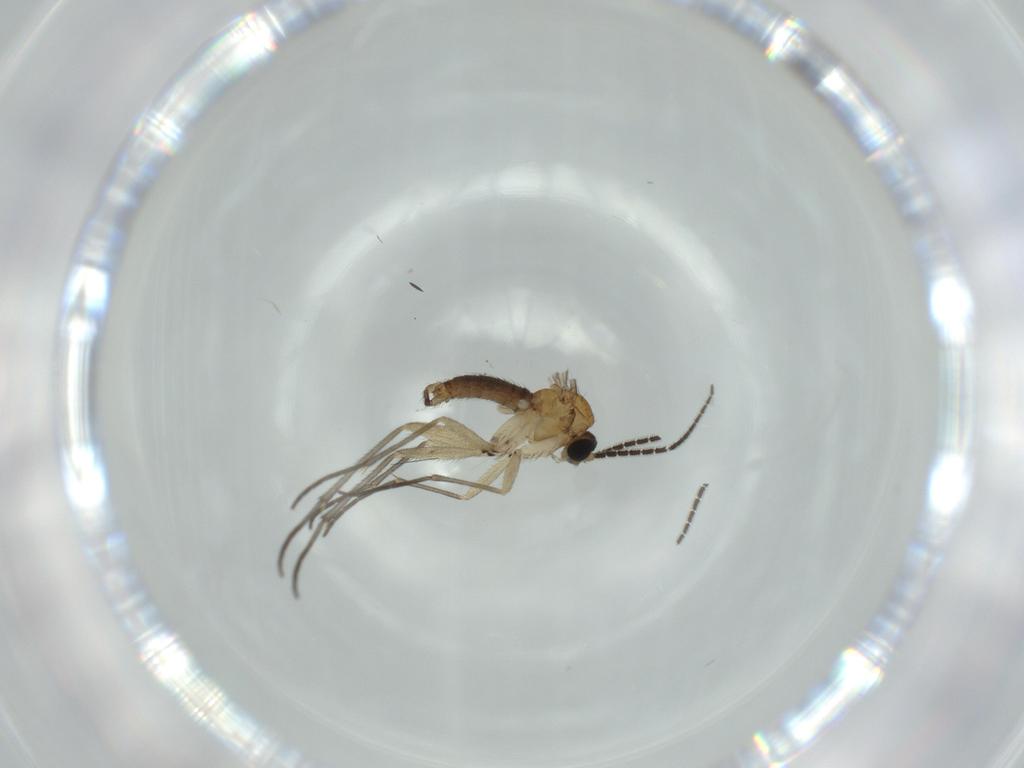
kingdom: Animalia
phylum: Arthropoda
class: Insecta
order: Diptera
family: Sciaridae
